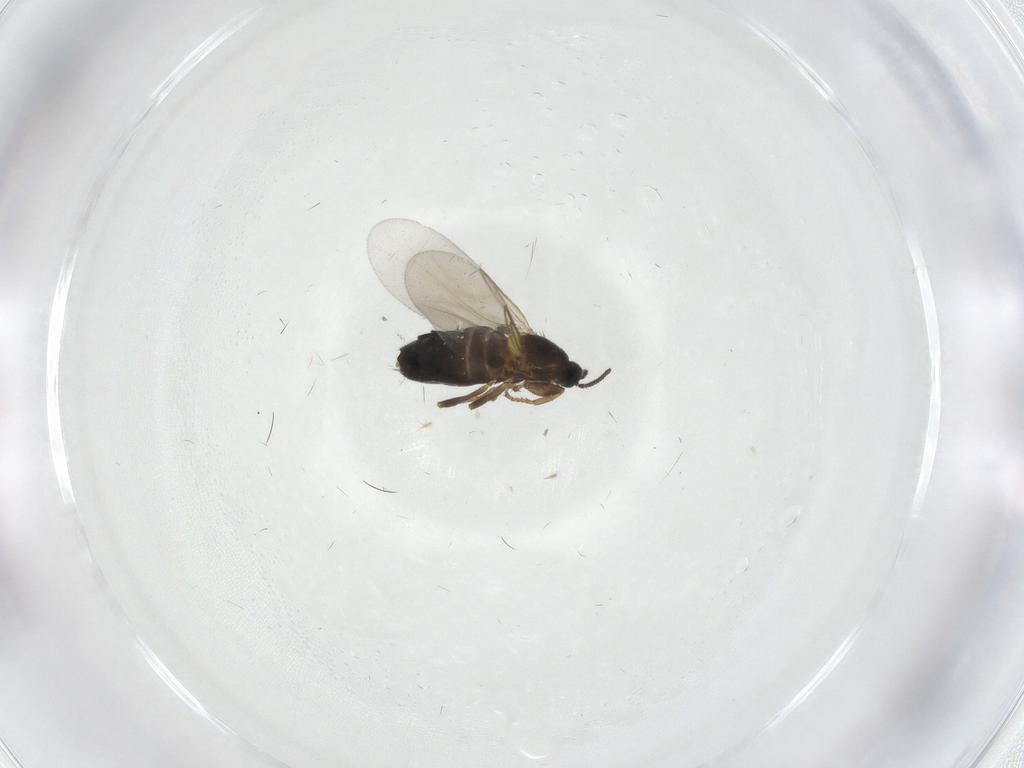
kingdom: Animalia
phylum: Arthropoda
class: Insecta
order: Diptera
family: Scatopsidae
